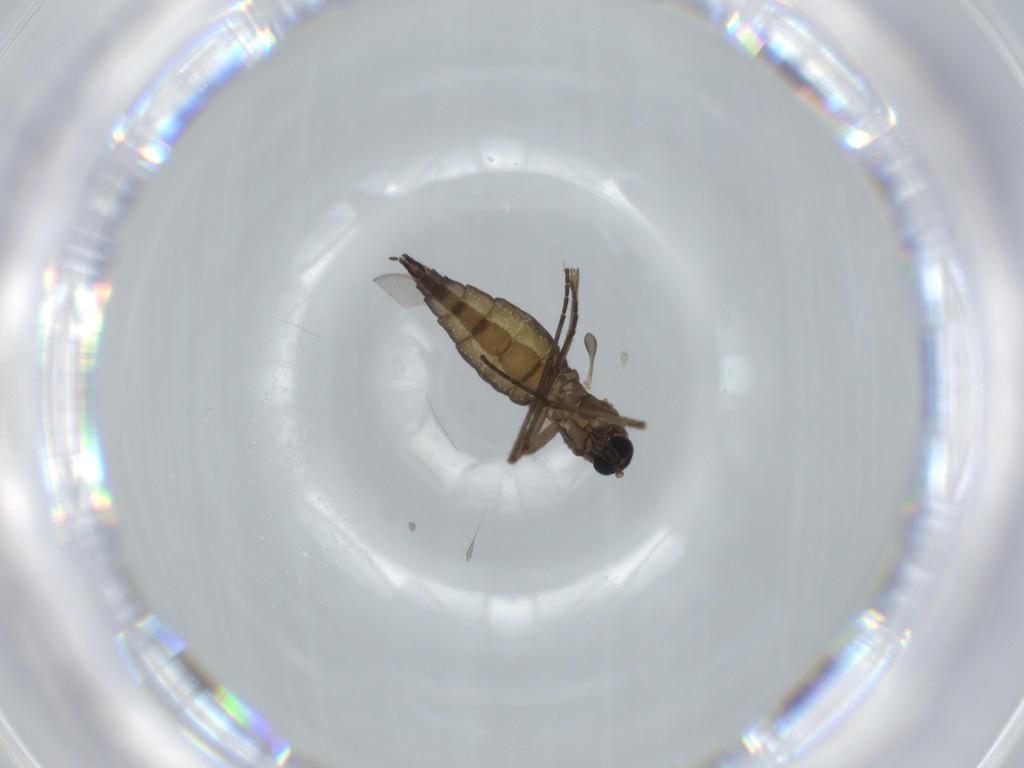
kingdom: Animalia
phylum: Arthropoda
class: Insecta
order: Diptera
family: Sciaridae
